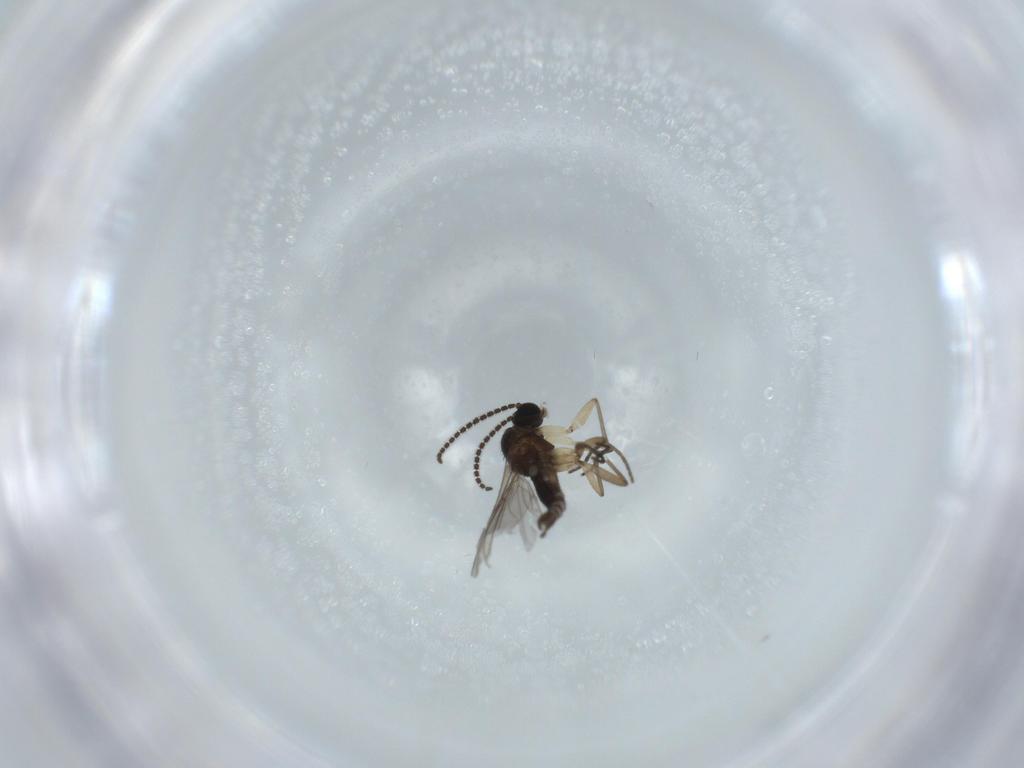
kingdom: Animalia
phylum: Arthropoda
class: Insecta
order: Diptera
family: Sciaridae
